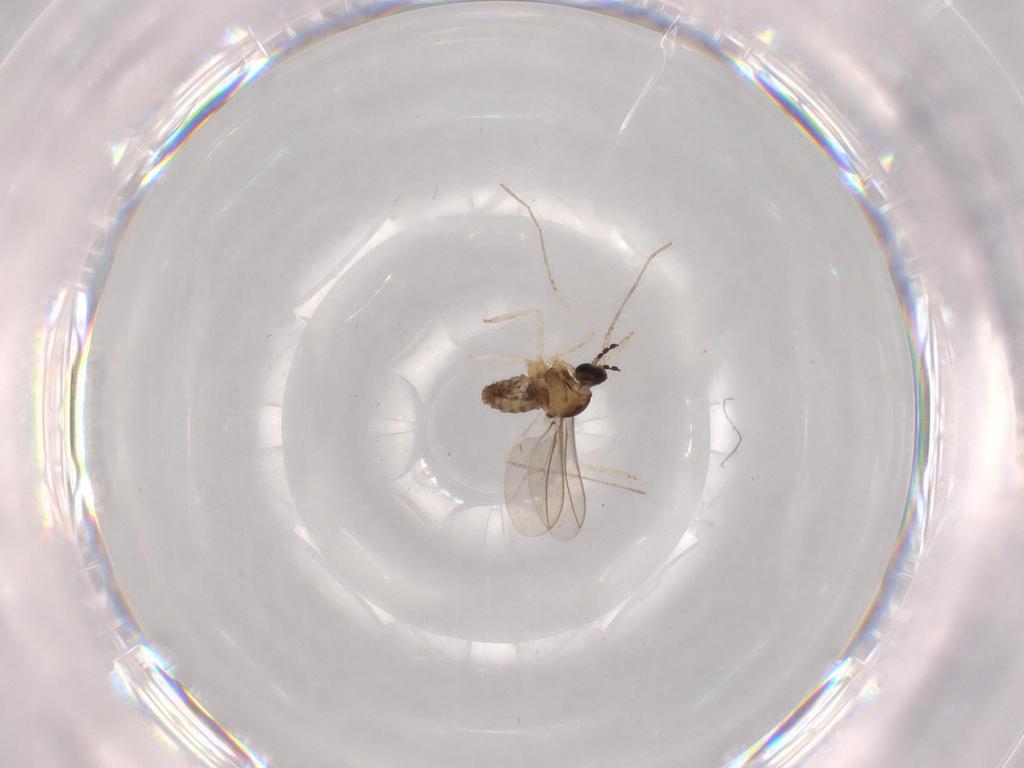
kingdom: Animalia
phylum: Arthropoda
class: Insecta
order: Diptera
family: Cecidomyiidae
